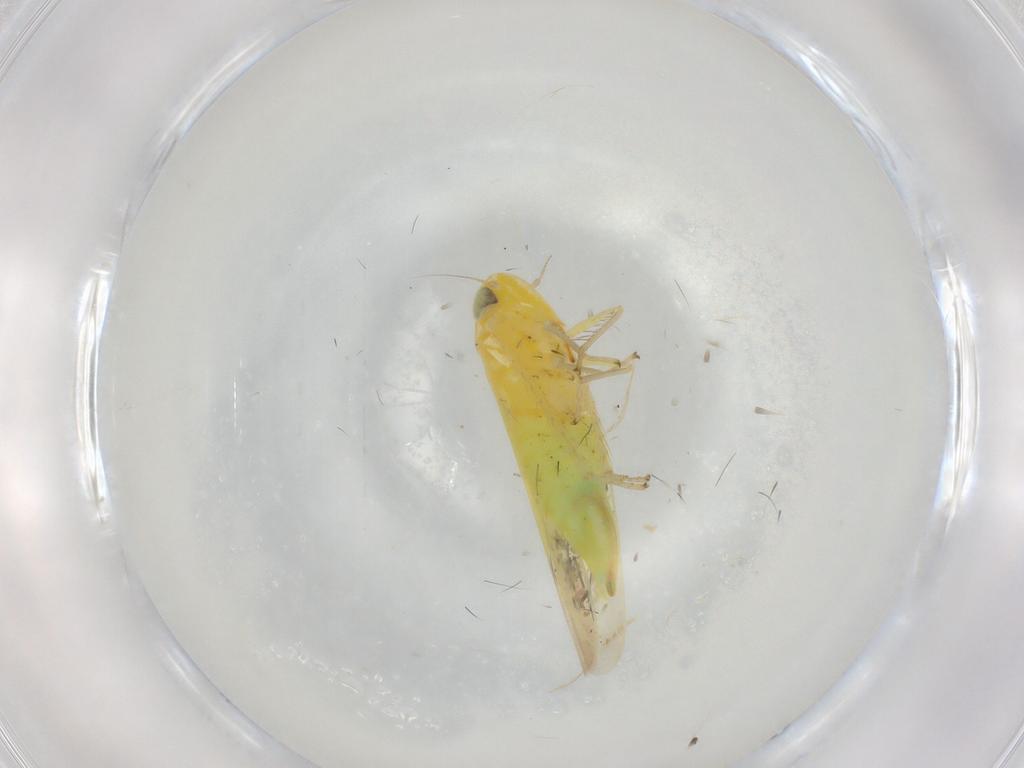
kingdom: Animalia
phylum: Arthropoda
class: Insecta
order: Hemiptera
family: Cicadellidae
